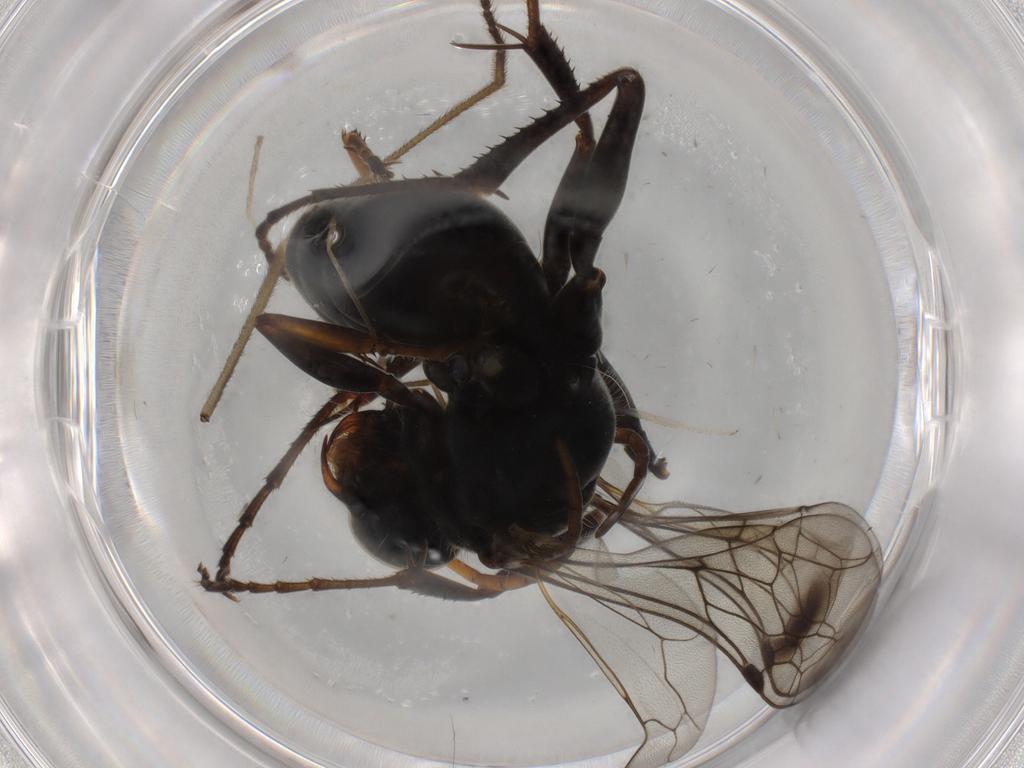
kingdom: Animalia
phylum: Arthropoda
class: Insecta
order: Hymenoptera
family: Pompilidae
